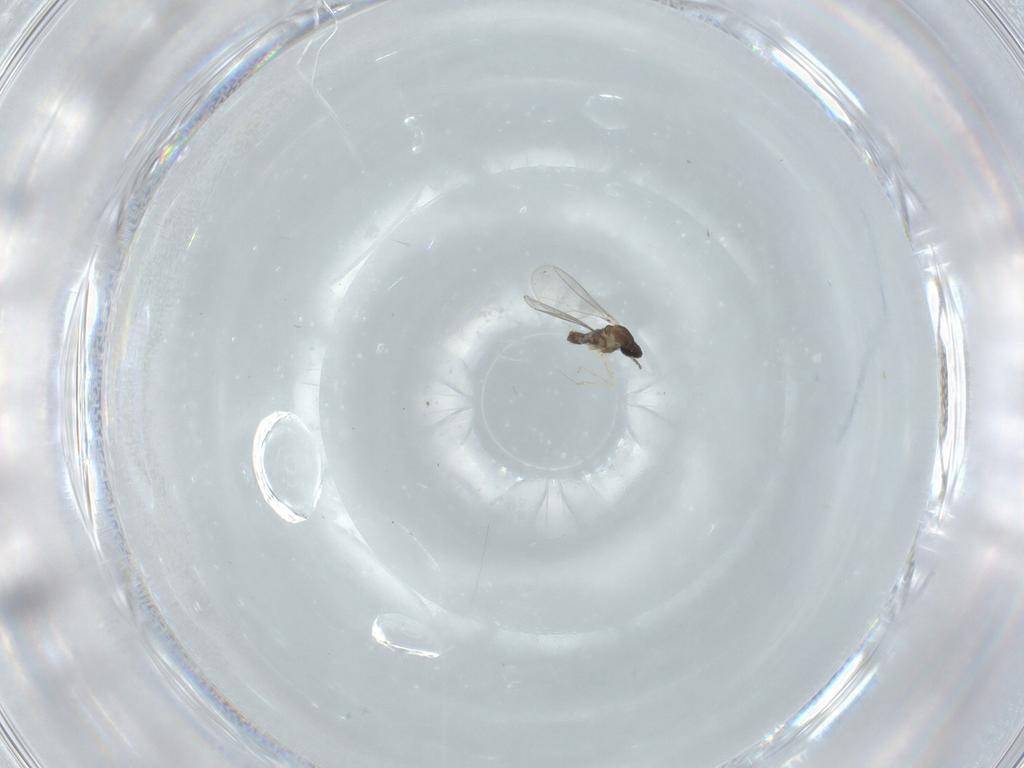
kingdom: Animalia
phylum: Arthropoda
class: Insecta
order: Diptera
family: Cecidomyiidae
